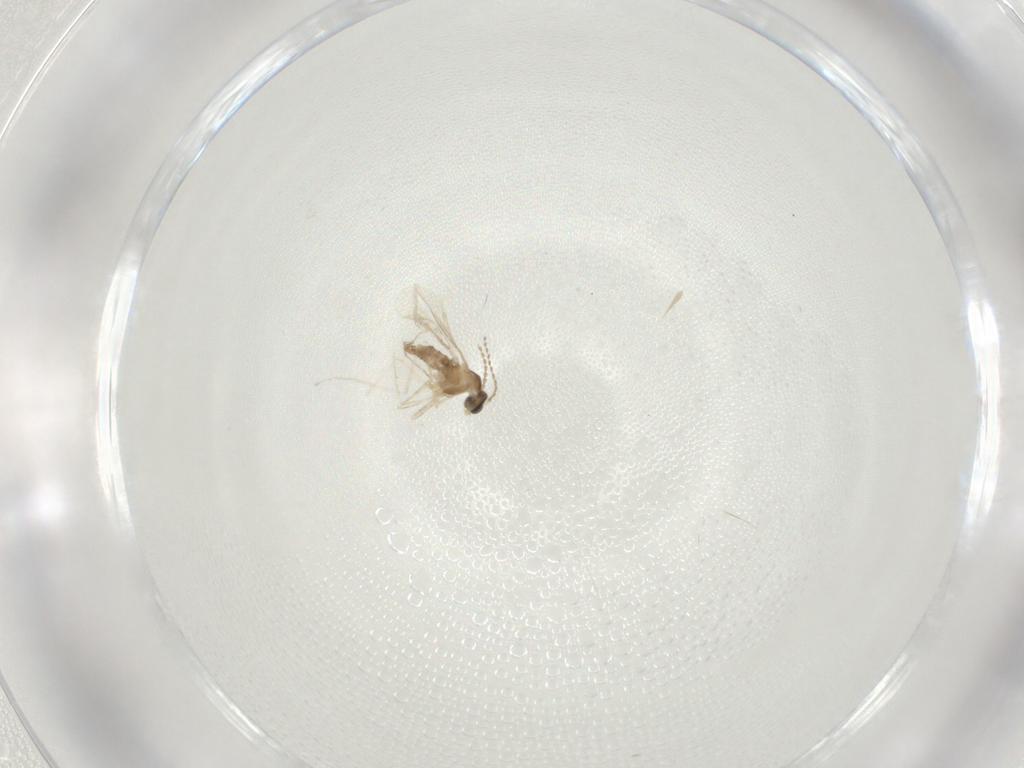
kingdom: Animalia
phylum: Arthropoda
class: Insecta
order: Diptera
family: Cecidomyiidae
